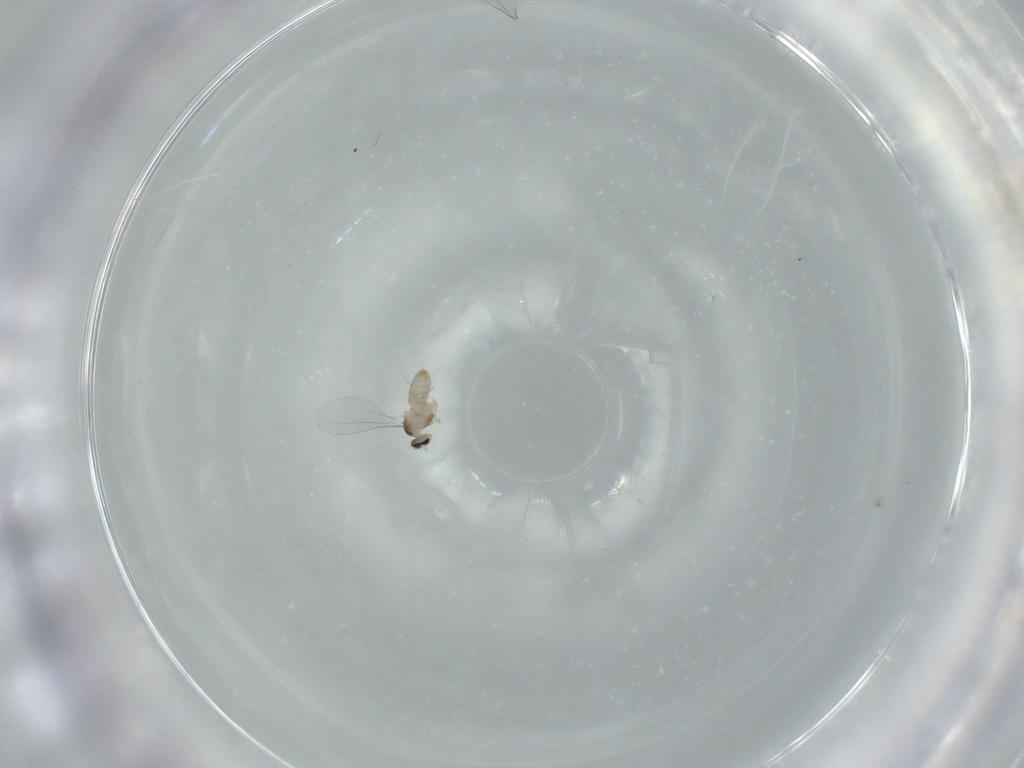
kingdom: Animalia
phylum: Arthropoda
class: Insecta
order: Diptera
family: Cecidomyiidae
